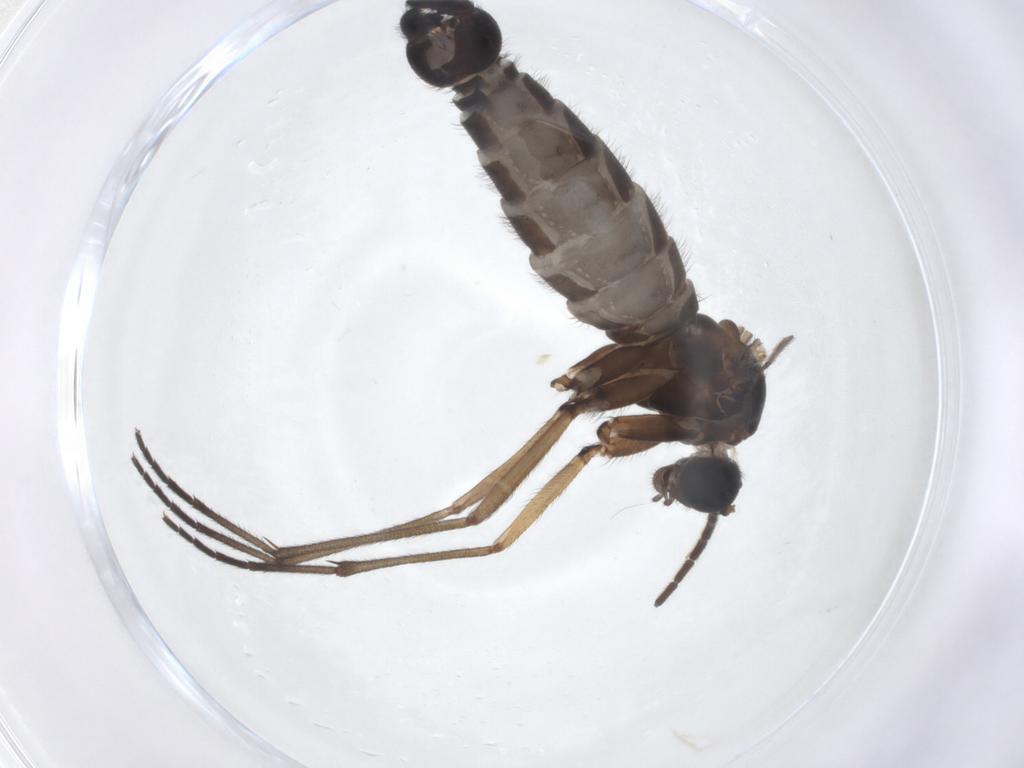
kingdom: Animalia
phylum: Arthropoda
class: Insecta
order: Diptera
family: Sciaridae
